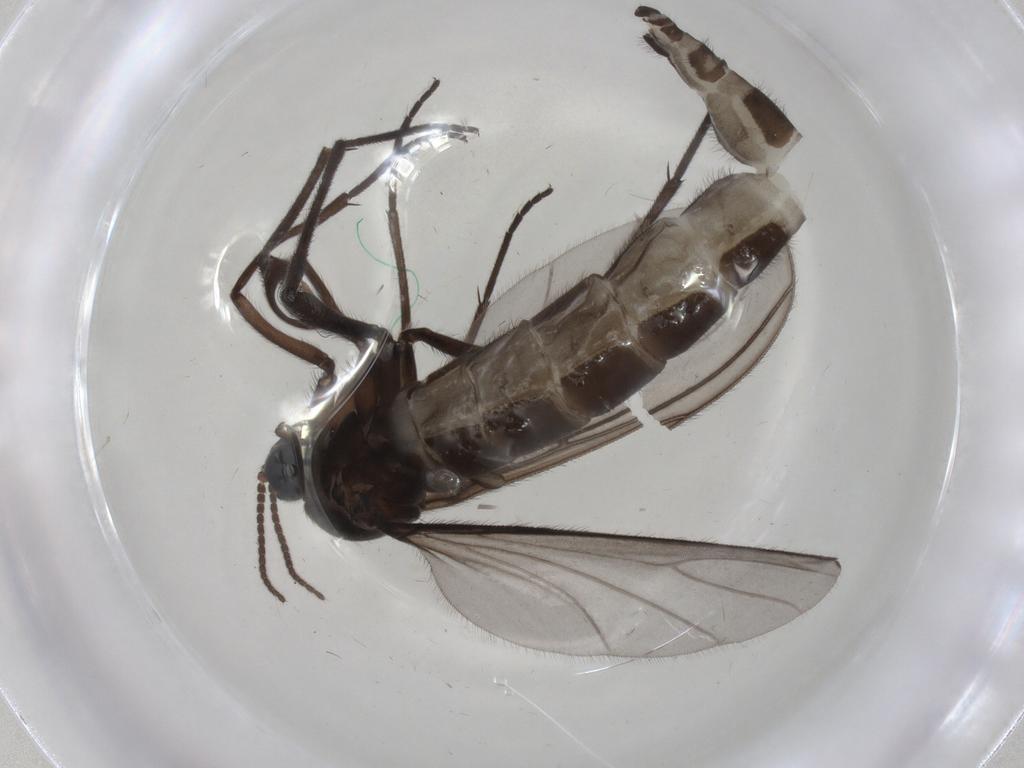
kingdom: Animalia
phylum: Arthropoda
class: Insecta
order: Diptera
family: Sciaridae
